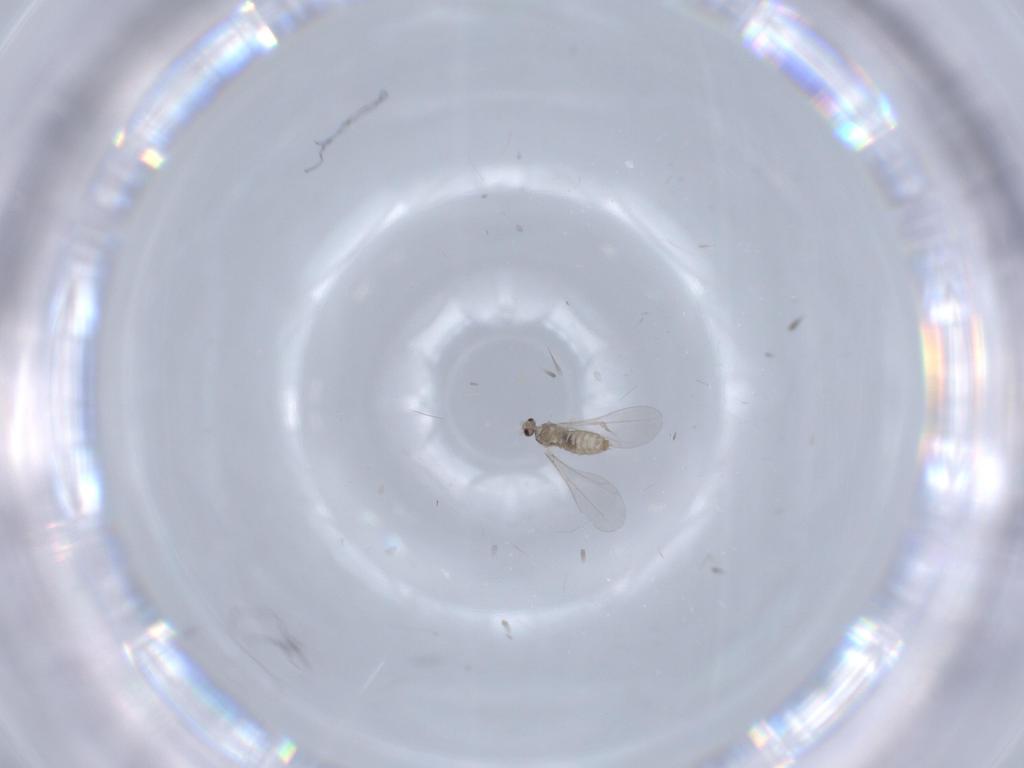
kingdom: Animalia
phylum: Arthropoda
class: Insecta
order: Diptera
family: Cecidomyiidae
